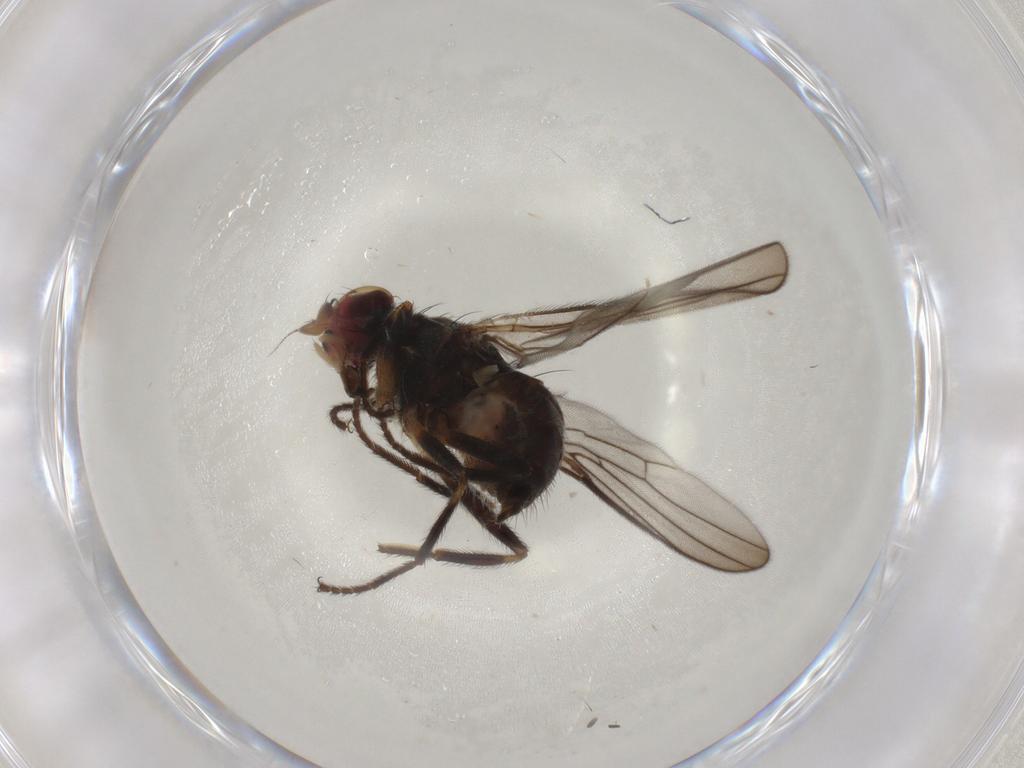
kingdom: Animalia
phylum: Arthropoda
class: Insecta
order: Diptera
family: Chloropidae
